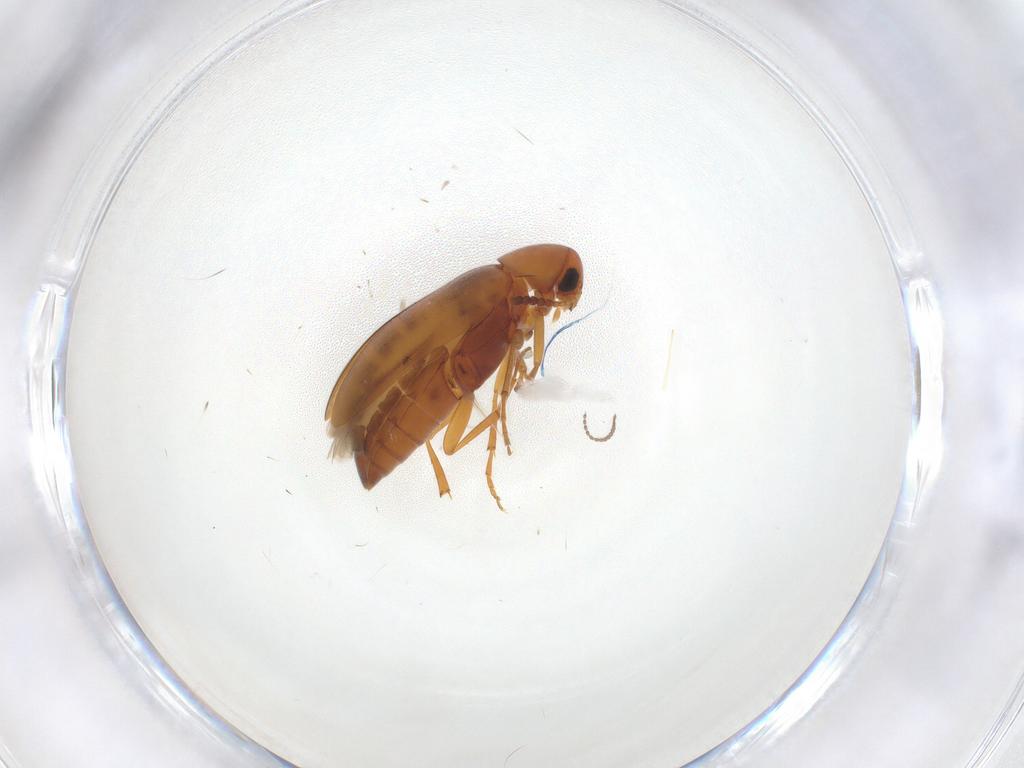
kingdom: Animalia
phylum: Arthropoda
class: Insecta
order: Coleoptera
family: Scraptiidae
